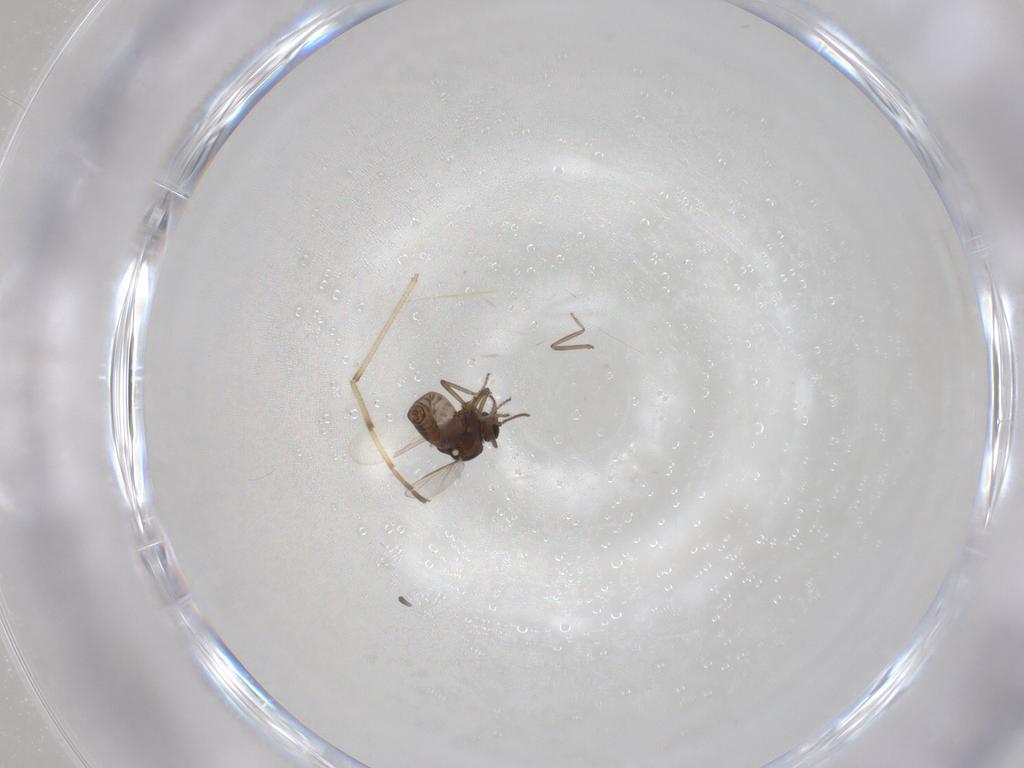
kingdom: Animalia
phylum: Arthropoda
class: Insecta
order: Diptera
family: Ceratopogonidae
